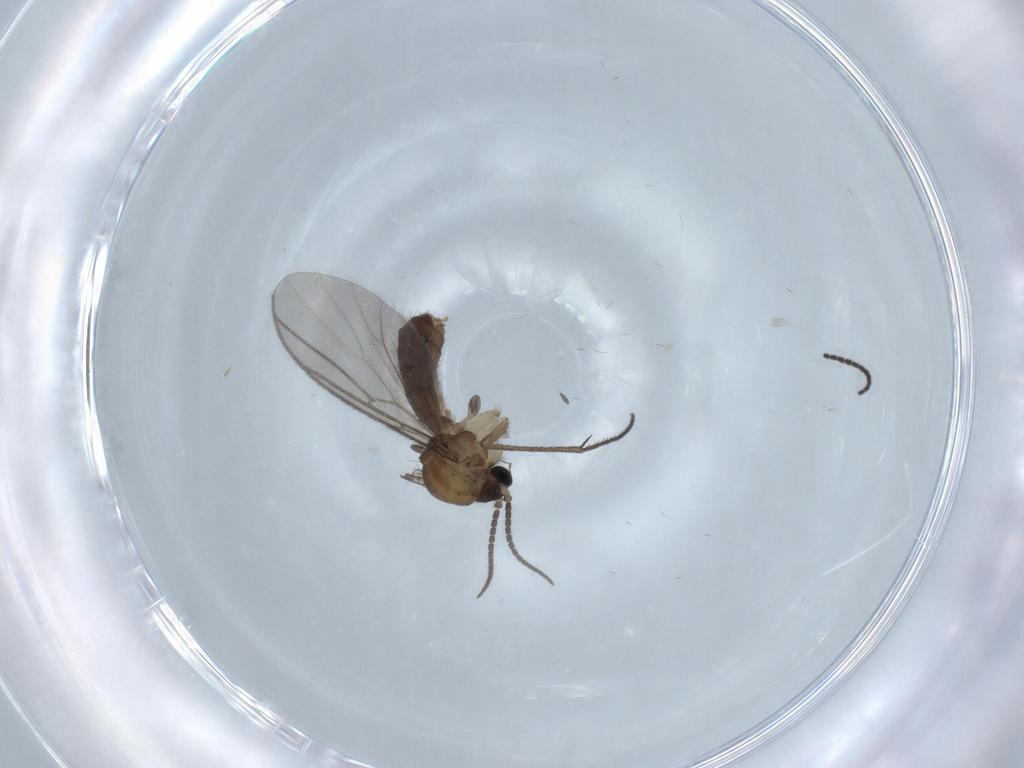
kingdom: Animalia
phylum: Arthropoda
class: Insecta
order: Diptera
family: Mycetophilidae
